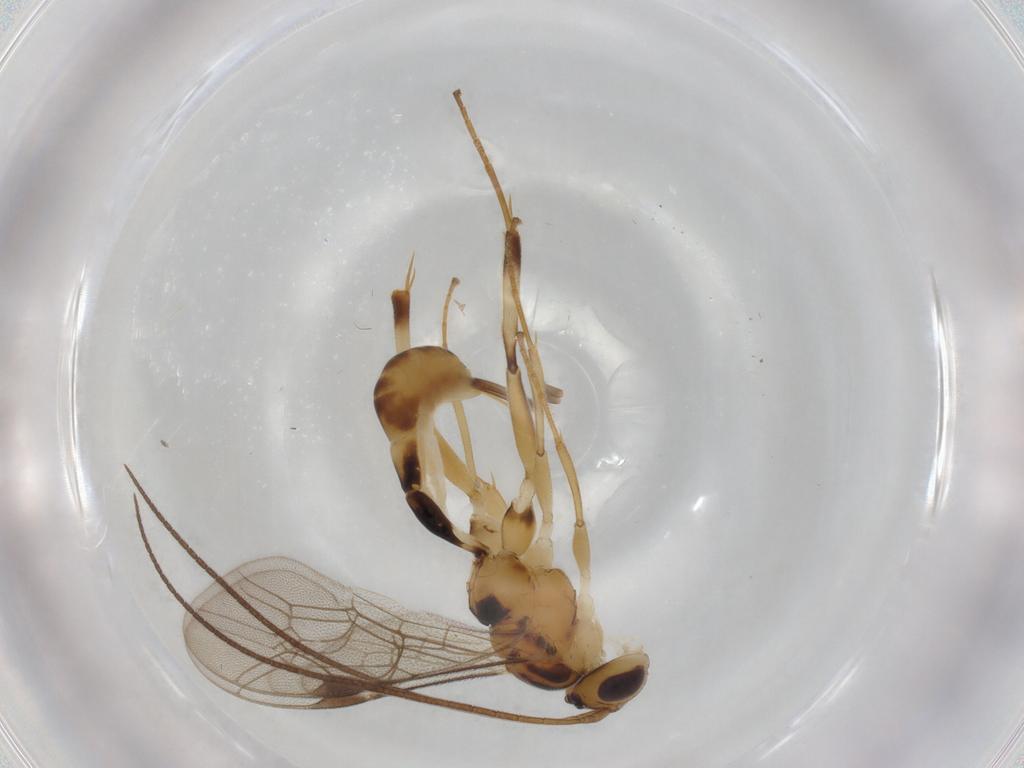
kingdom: Animalia
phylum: Arthropoda
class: Insecta
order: Hymenoptera
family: Ichneumonidae
